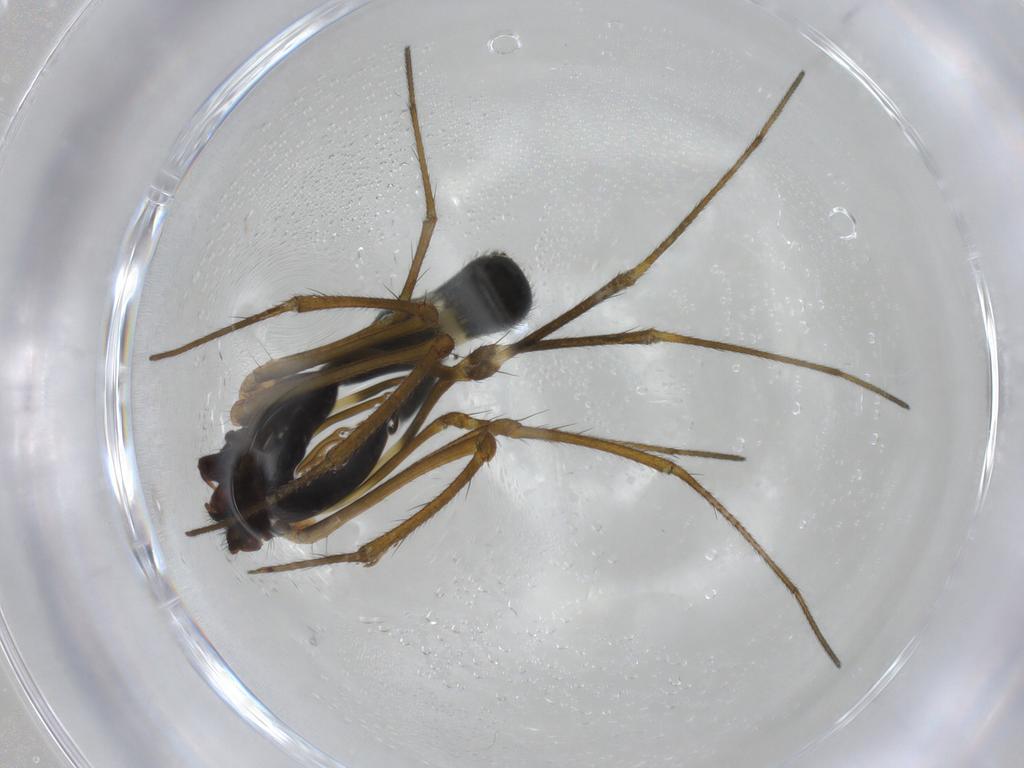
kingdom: Animalia
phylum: Arthropoda
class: Arachnida
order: Araneae
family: Linyphiidae
